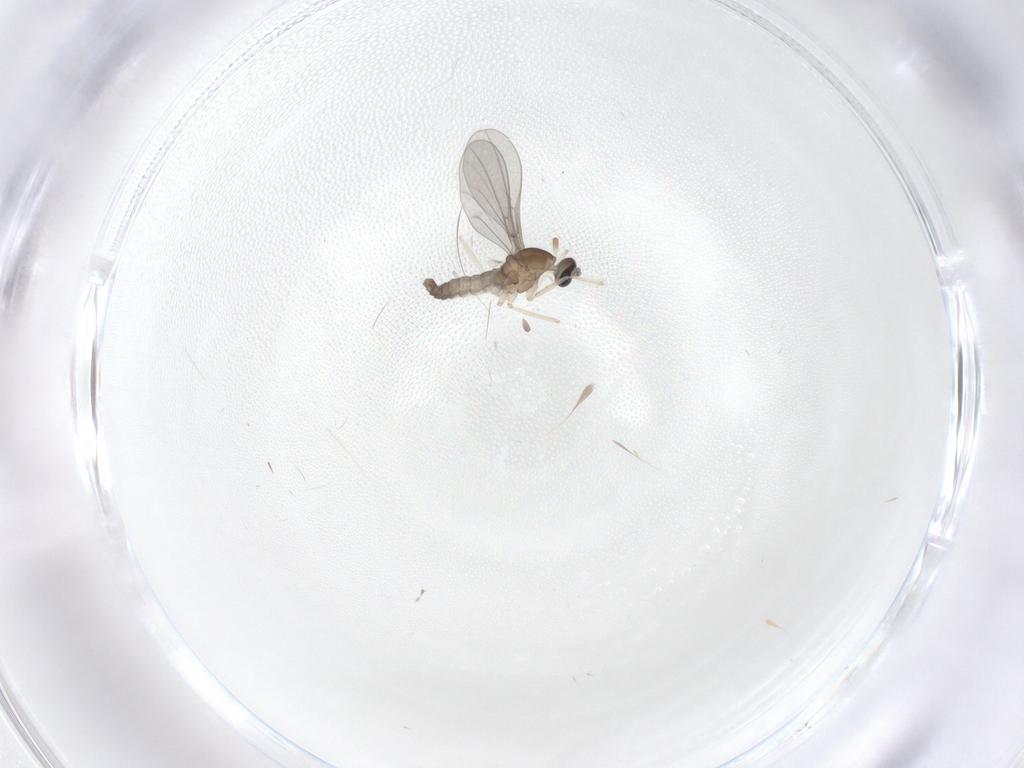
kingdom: Animalia
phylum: Arthropoda
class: Insecta
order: Diptera
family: Cecidomyiidae
